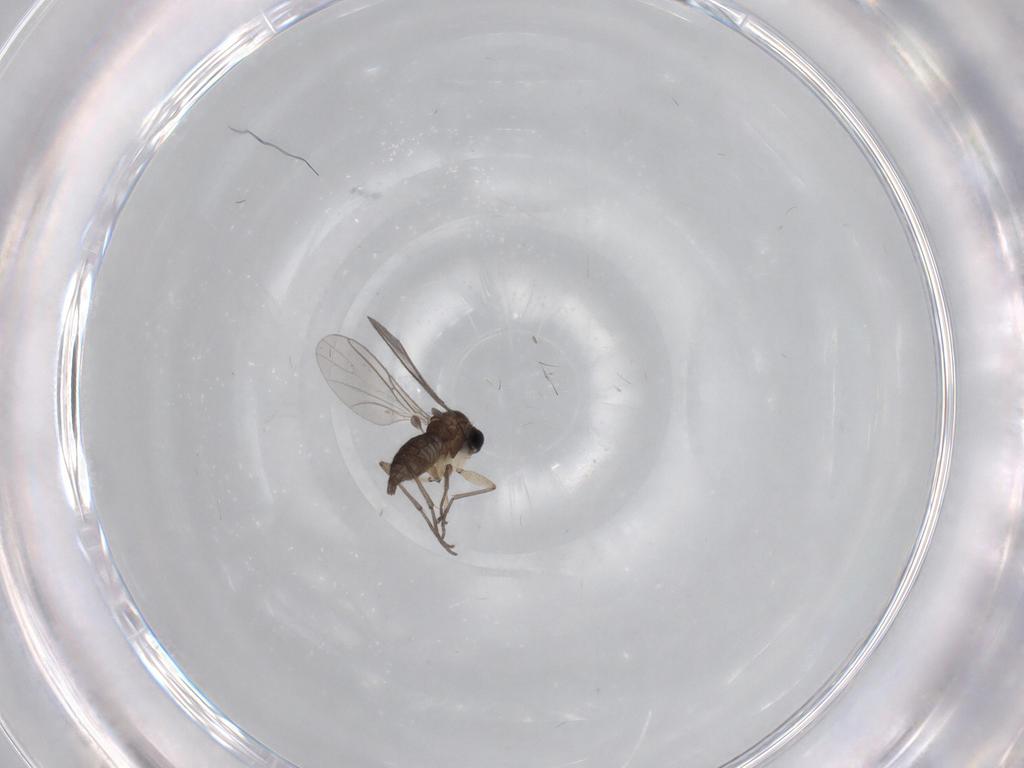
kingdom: Animalia
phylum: Arthropoda
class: Insecta
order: Diptera
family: Sciaridae
